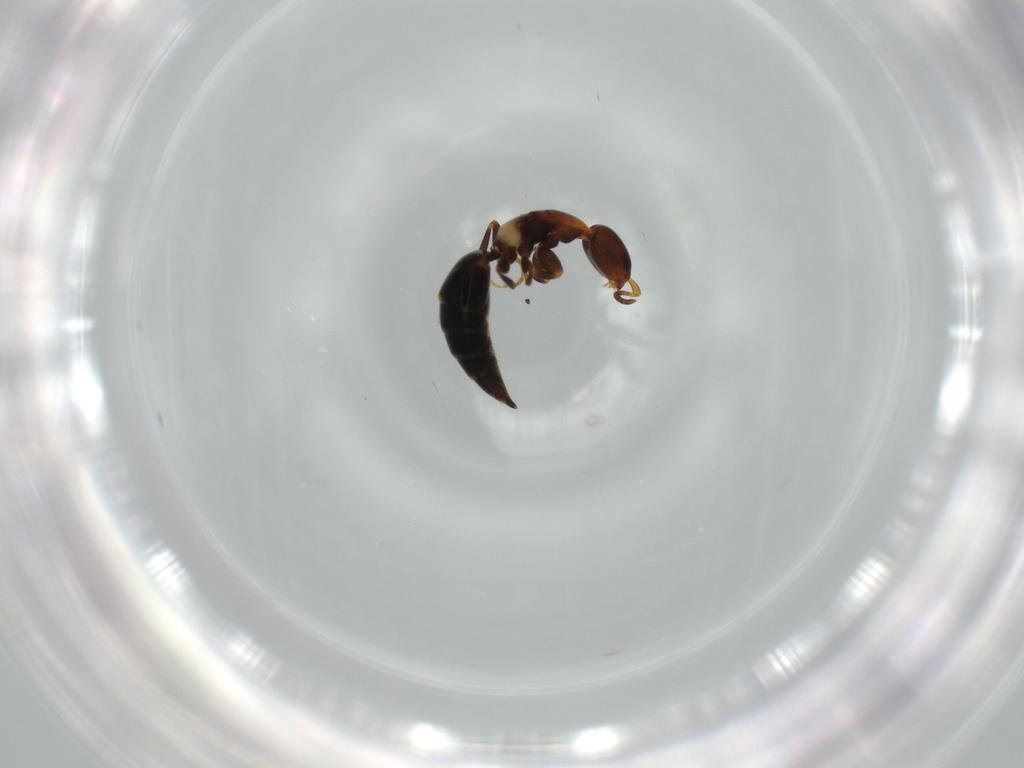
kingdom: Animalia
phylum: Arthropoda
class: Insecta
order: Hymenoptera
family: Bethylidae
